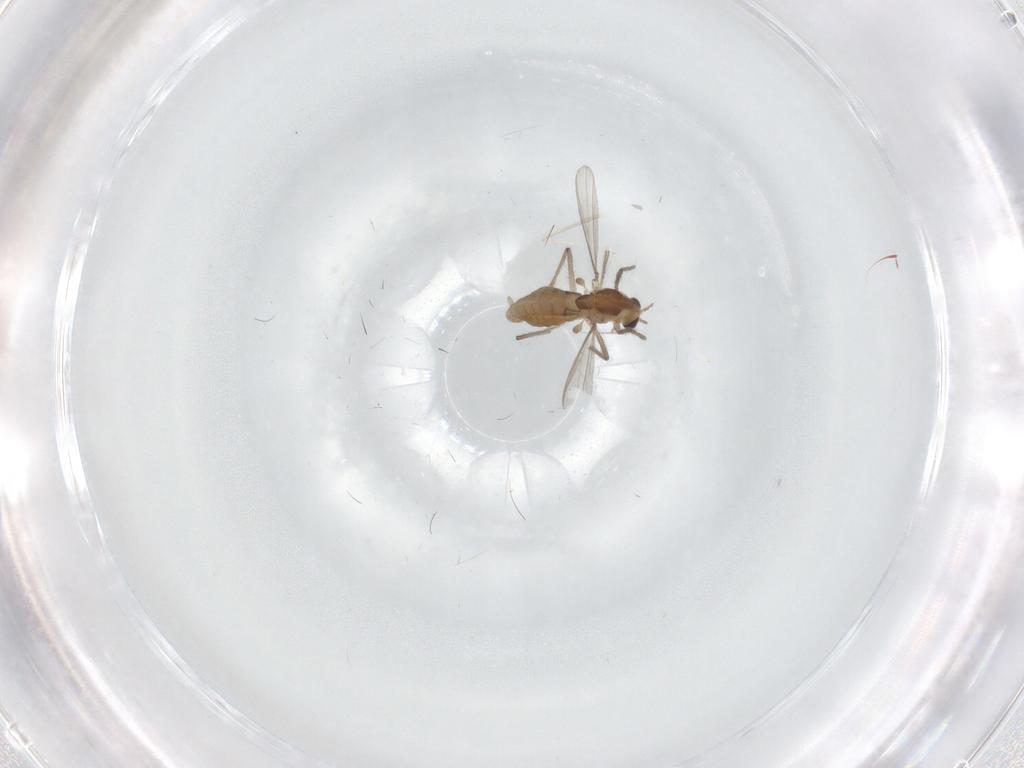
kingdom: Animalia
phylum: Arthropoda
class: Insecta
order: Diptera
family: Chironomidae
